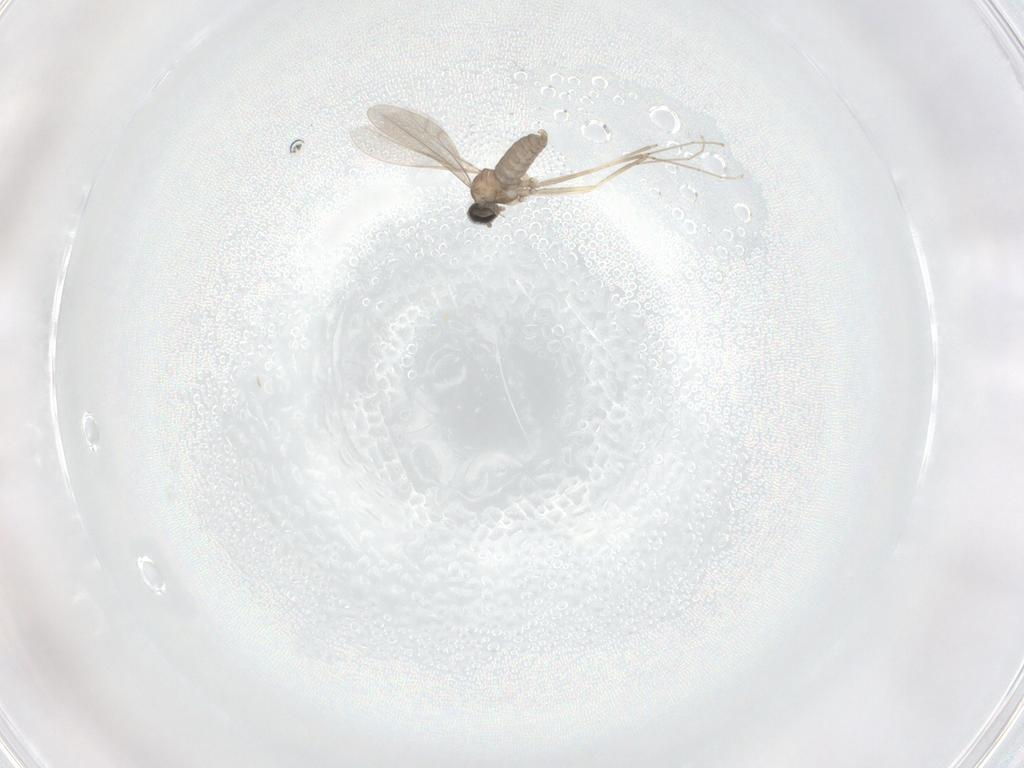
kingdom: Animalia
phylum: Arthropoda
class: Insecta
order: Diptera
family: Cecidomyiidae
